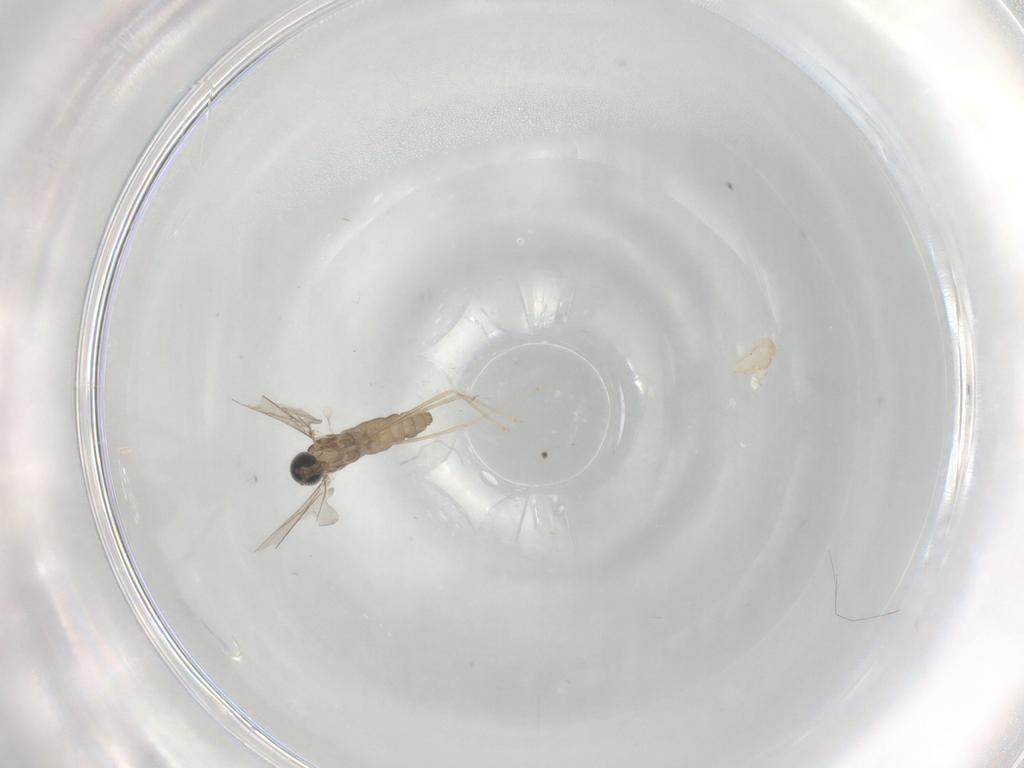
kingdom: Animalia
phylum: Arthropoda
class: Insecta
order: Diptera
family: Cecidomyiidae
